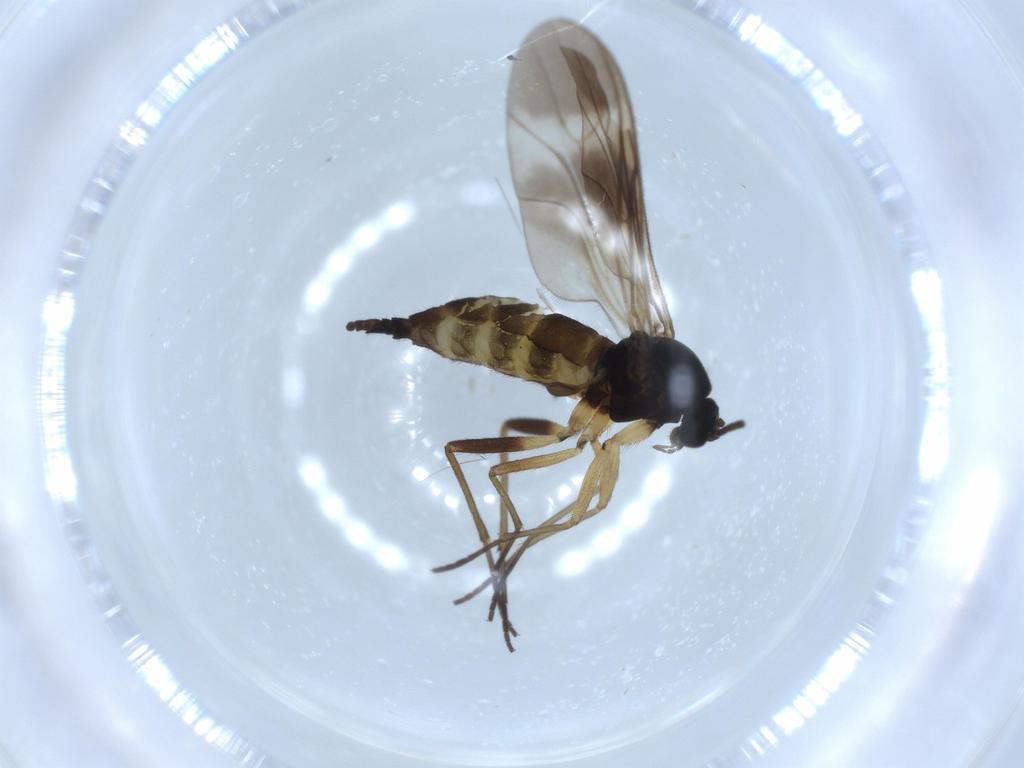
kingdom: Animalia
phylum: Arthropoda
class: Insecta
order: Diptera
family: Sciaridae
